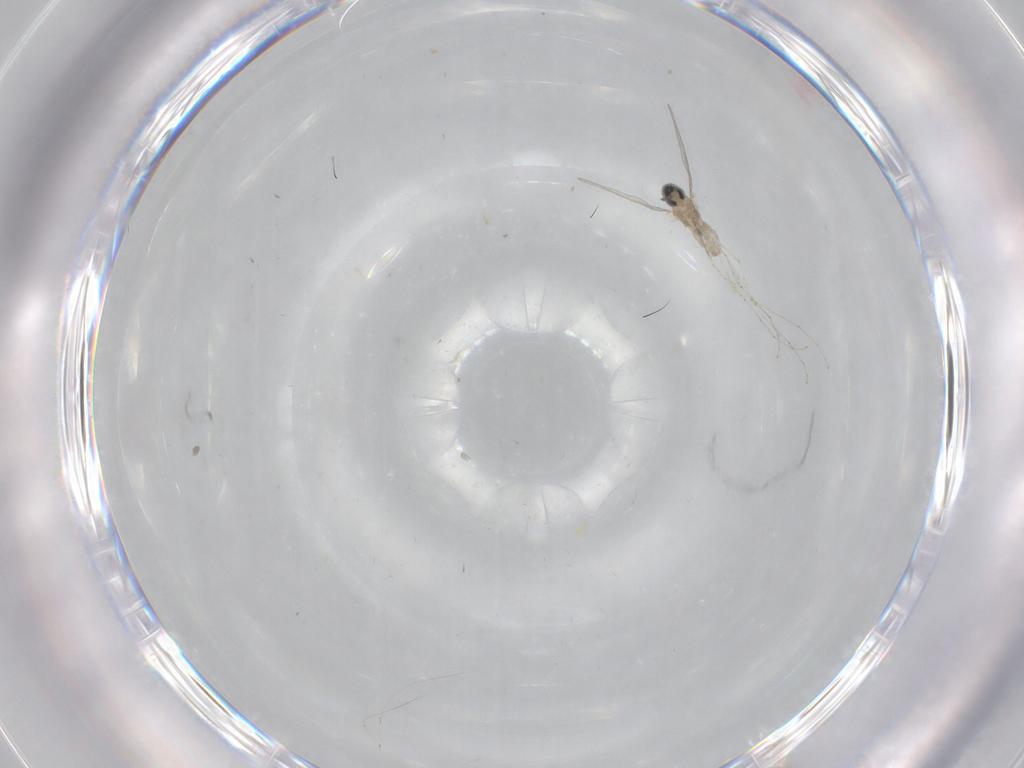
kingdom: Animalia
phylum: Arthropoda
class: Insecta
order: Diptera
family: Cecidomyiidae
